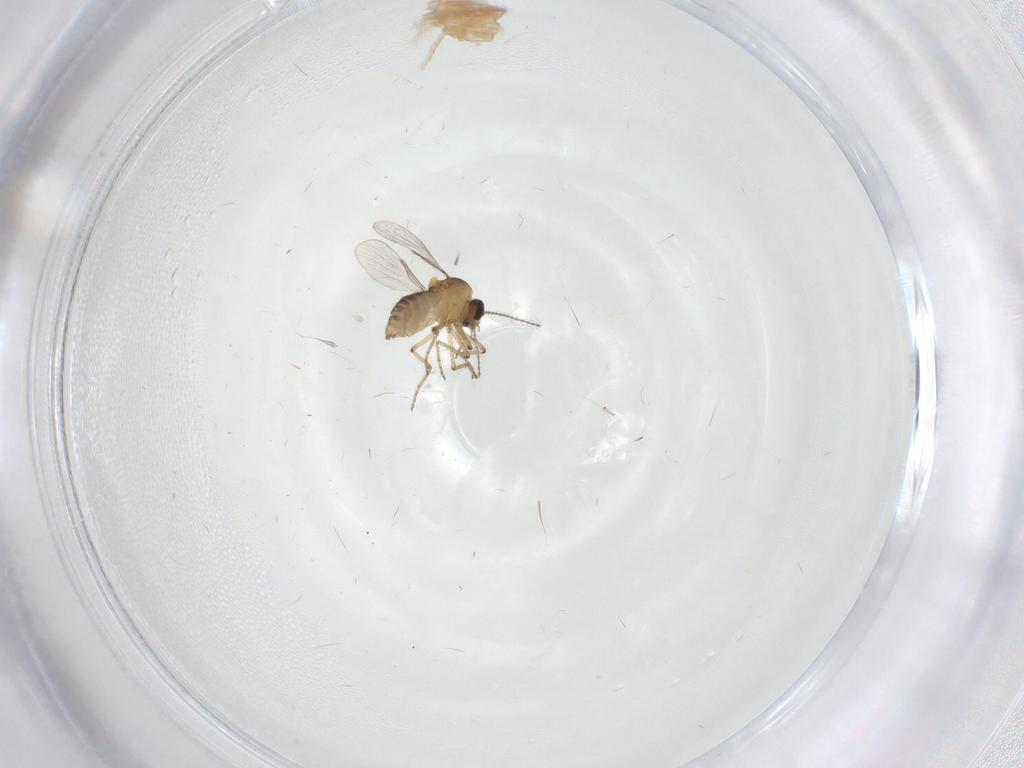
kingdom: Animalia
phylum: Arthropoda
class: Insecta
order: Diptera
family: Ceratopogonidae
